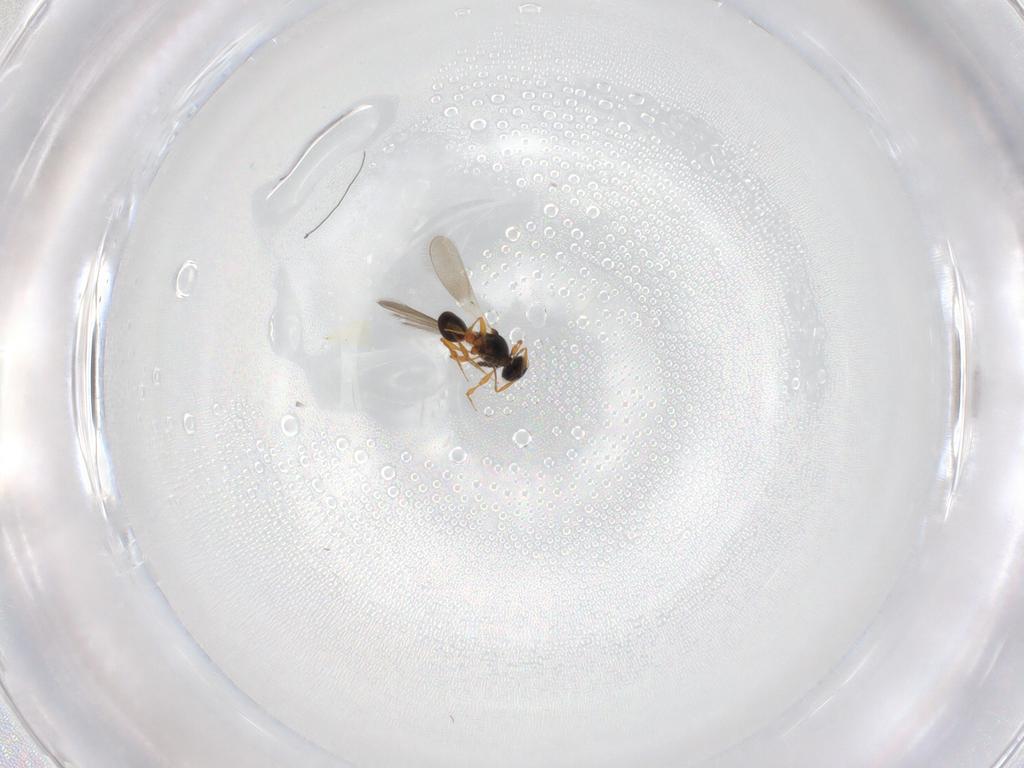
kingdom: Animalia
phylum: Arthropoda
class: Insecta
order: Hymenoptera
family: Platygastridae
